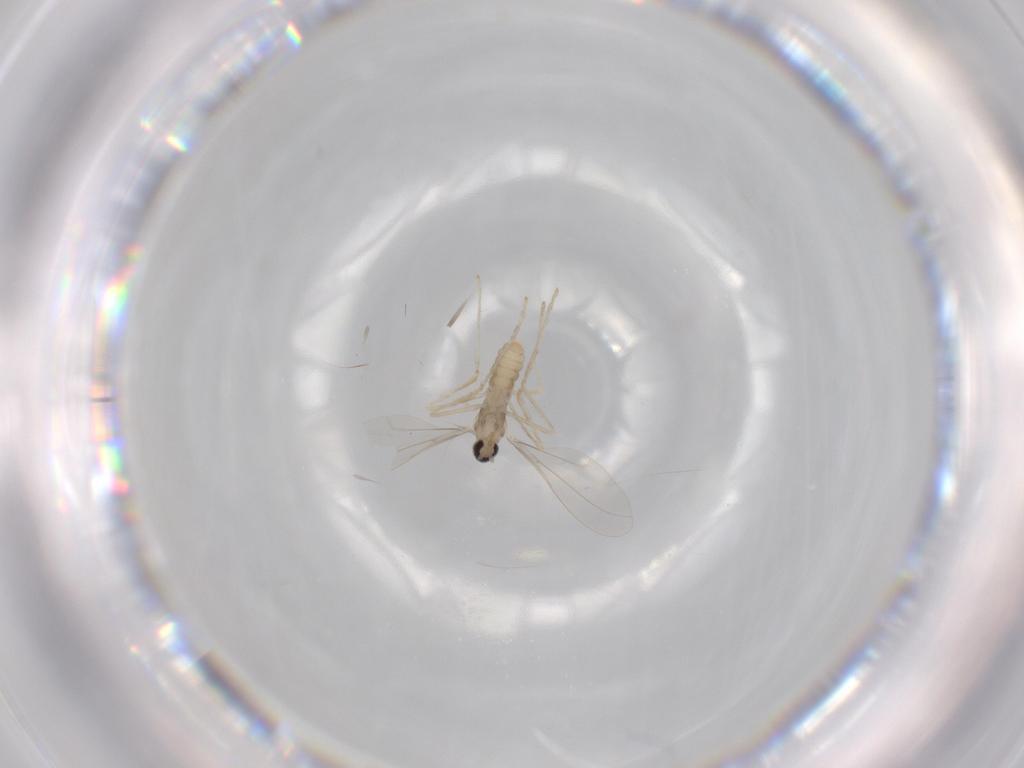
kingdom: Animalia
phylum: Arthropoda
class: Insecta
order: Diptera
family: Cecidomyiidae
